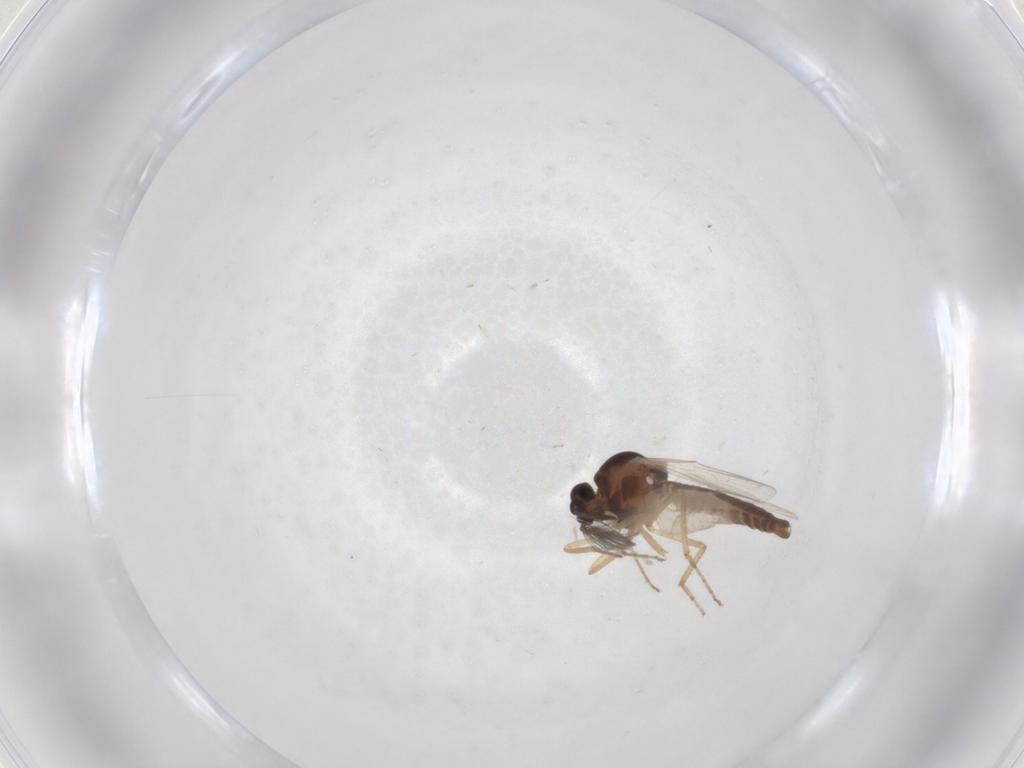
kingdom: Animalia
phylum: Arthropoda
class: Insecta
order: Diptera
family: Ceratopogonidae
